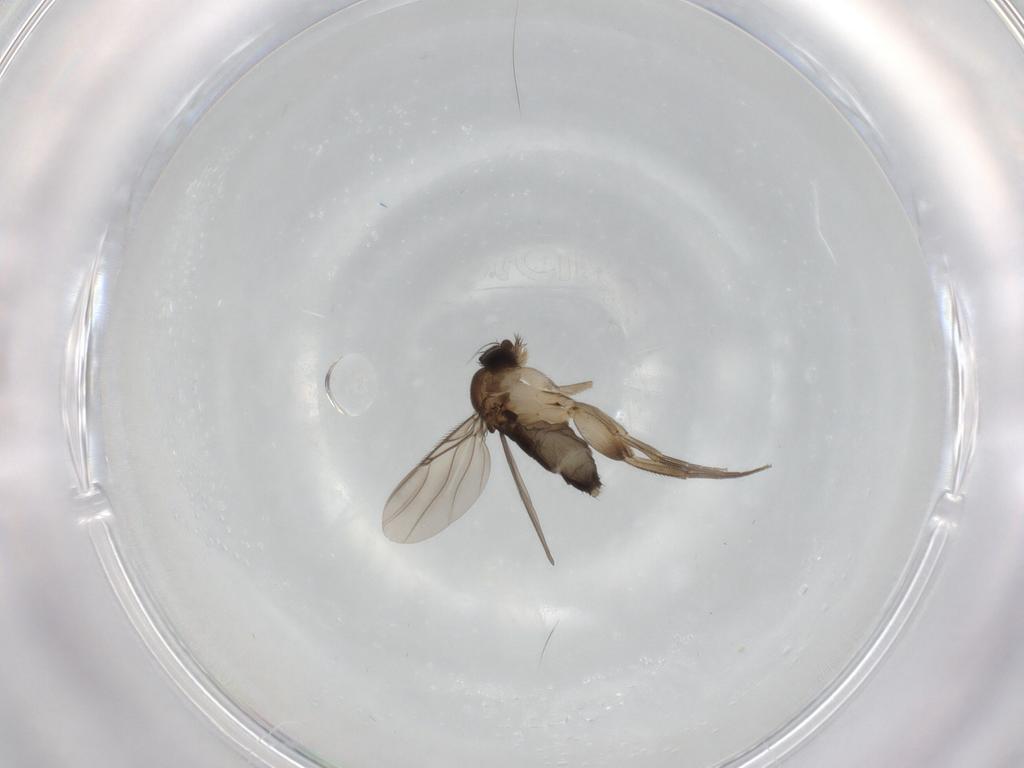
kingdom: Animalia
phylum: Arthropoda
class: Insecta
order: Diptera
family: Phoridae
